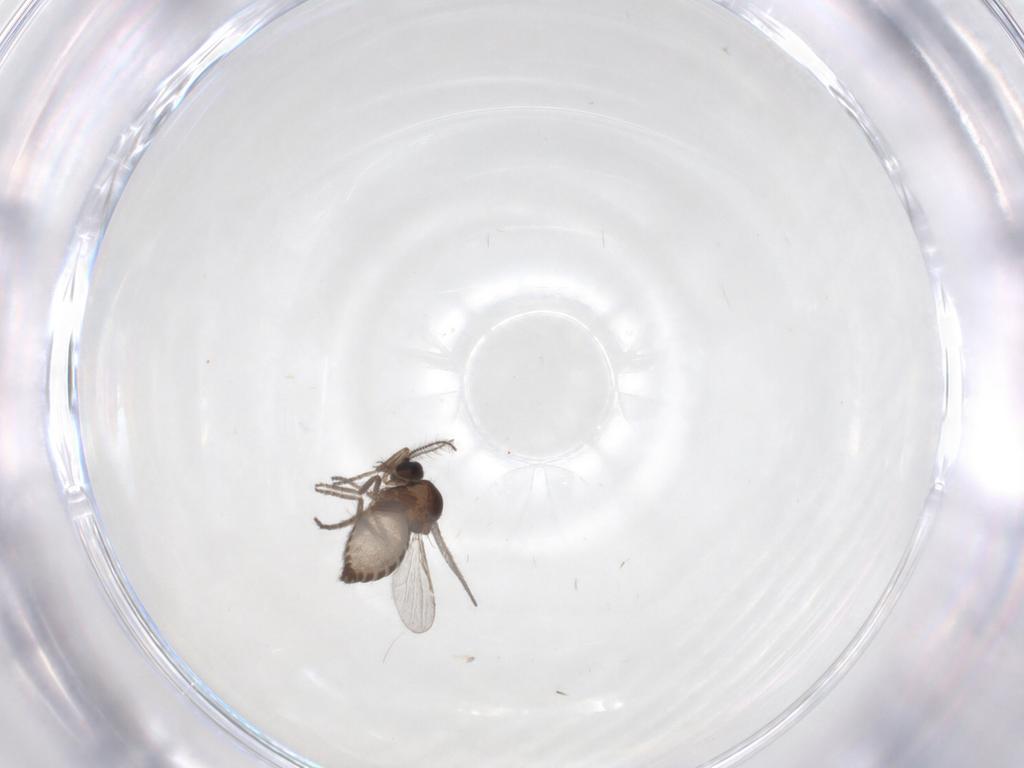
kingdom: Animalia
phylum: Arthropoda
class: Insecta
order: Diptera
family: Ceratopogonidae
